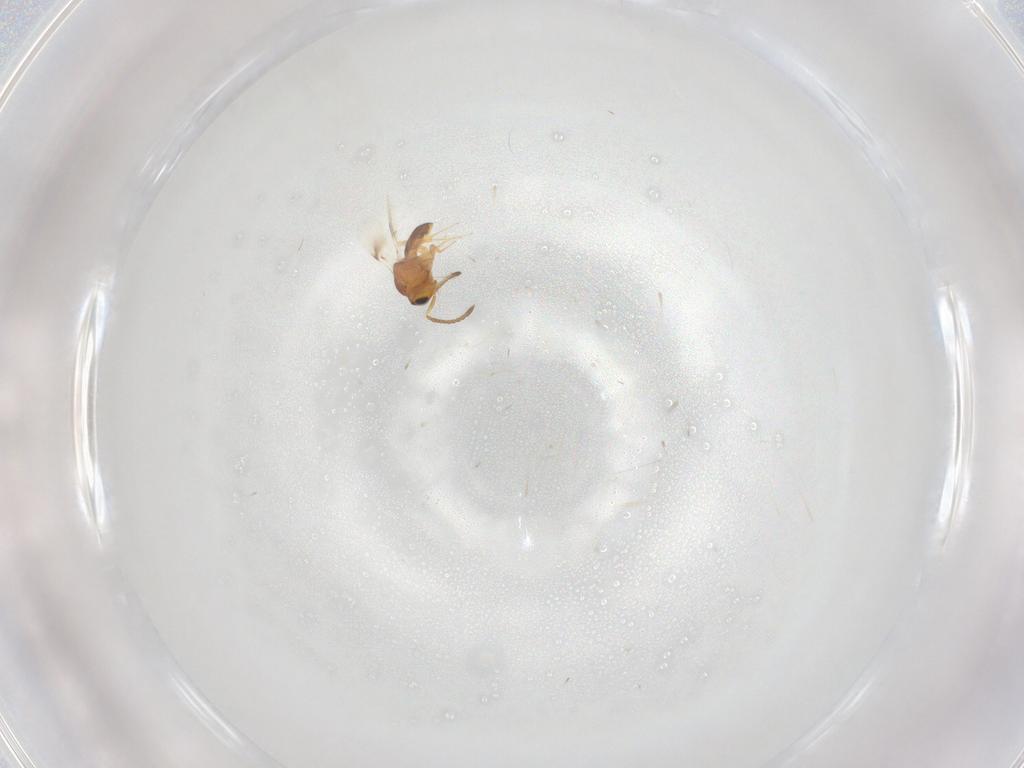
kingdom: Animalia
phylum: Arthropoda
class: Insecta
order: Hymenoptera
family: Scelionidae
